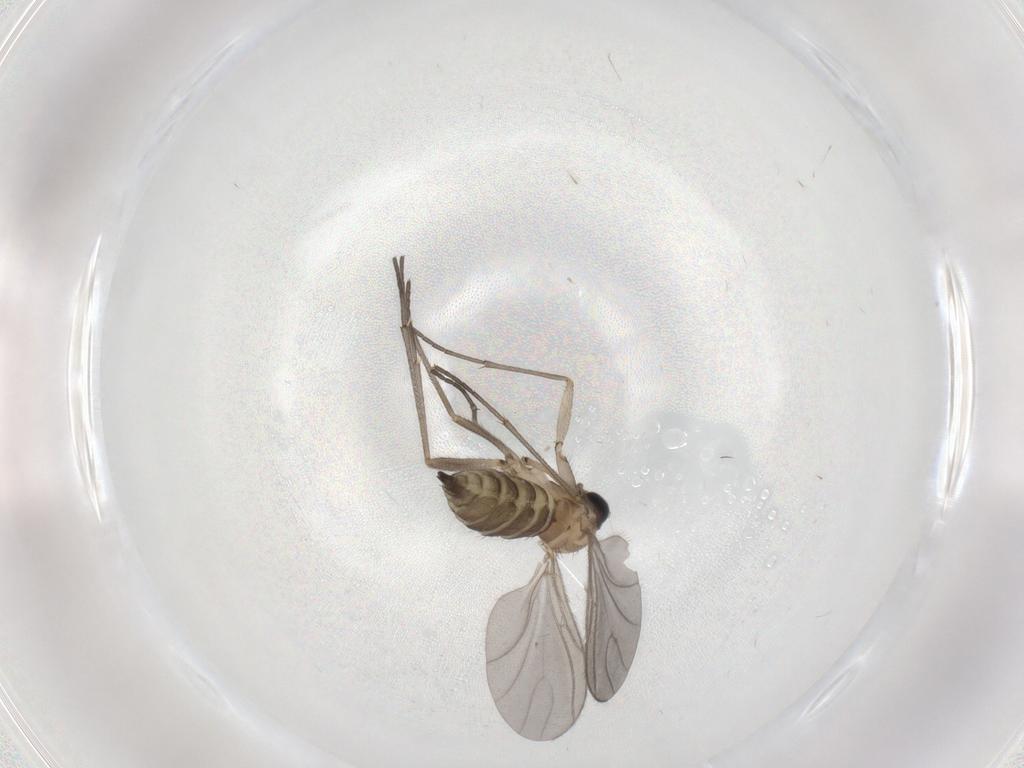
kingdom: Animalia
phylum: Arthropoda
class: Insecta
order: Diptera
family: Sciaridae
